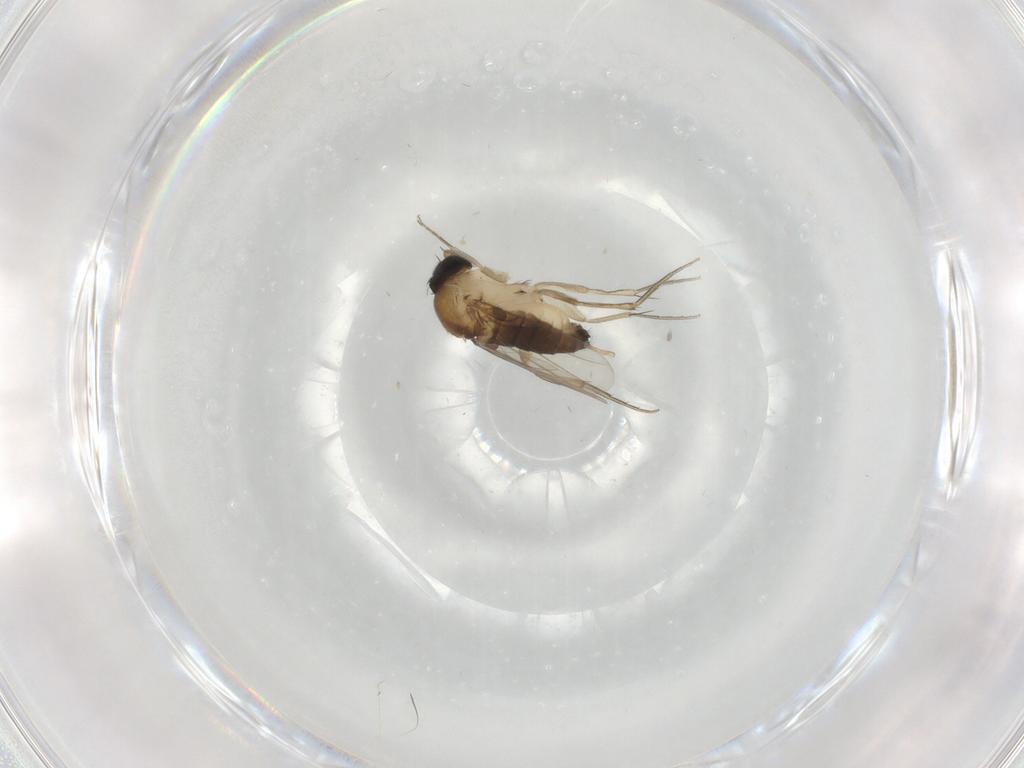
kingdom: Animalia
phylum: Arthropoda
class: Insecta
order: Diptera
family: Phoridae
